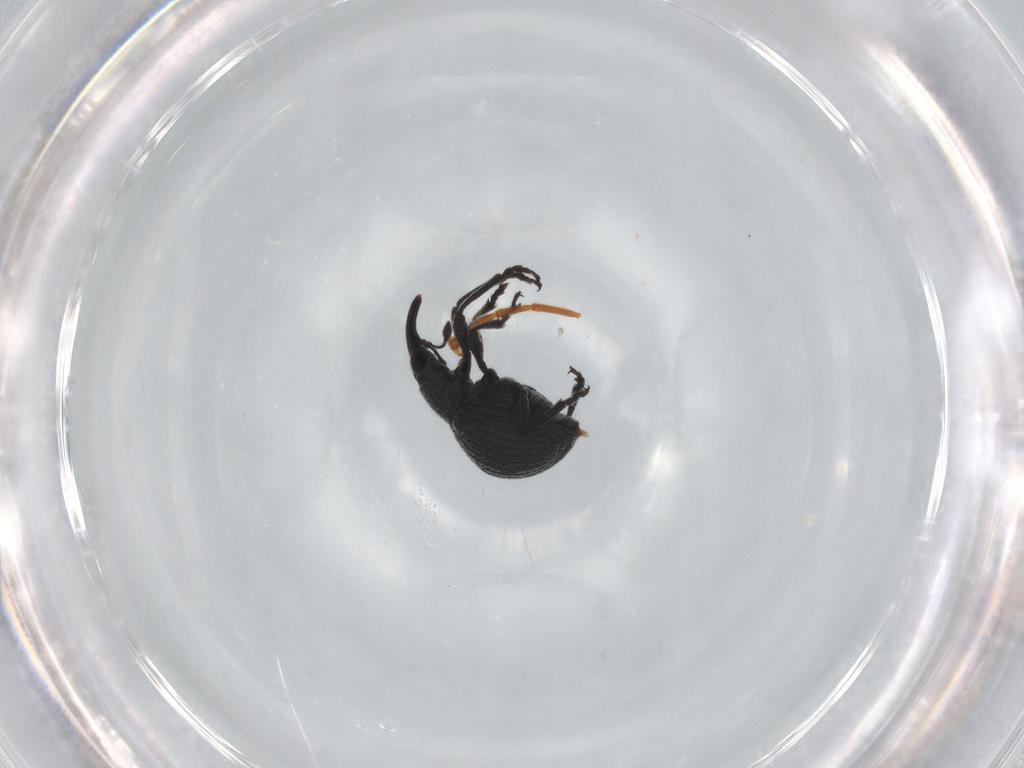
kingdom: Animalia
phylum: Arthropoda
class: Insecta
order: Coleoptera
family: Brentidae
